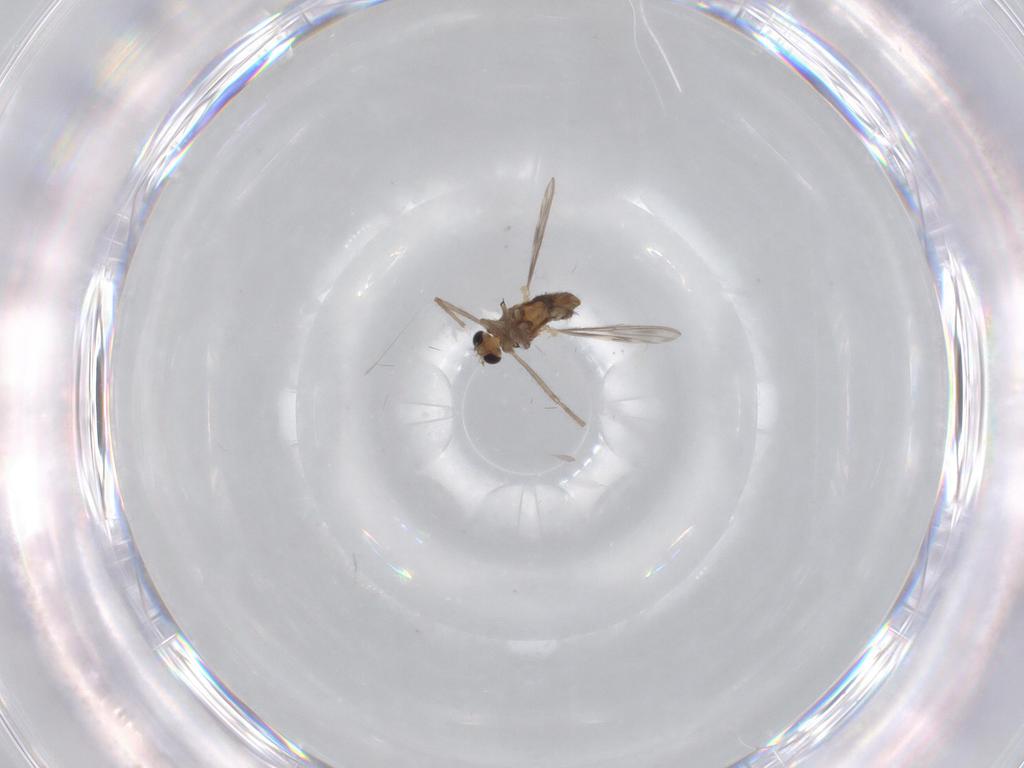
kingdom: Animalia
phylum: Arthropoda
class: Insecta
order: Diptera
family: Chironomidae
